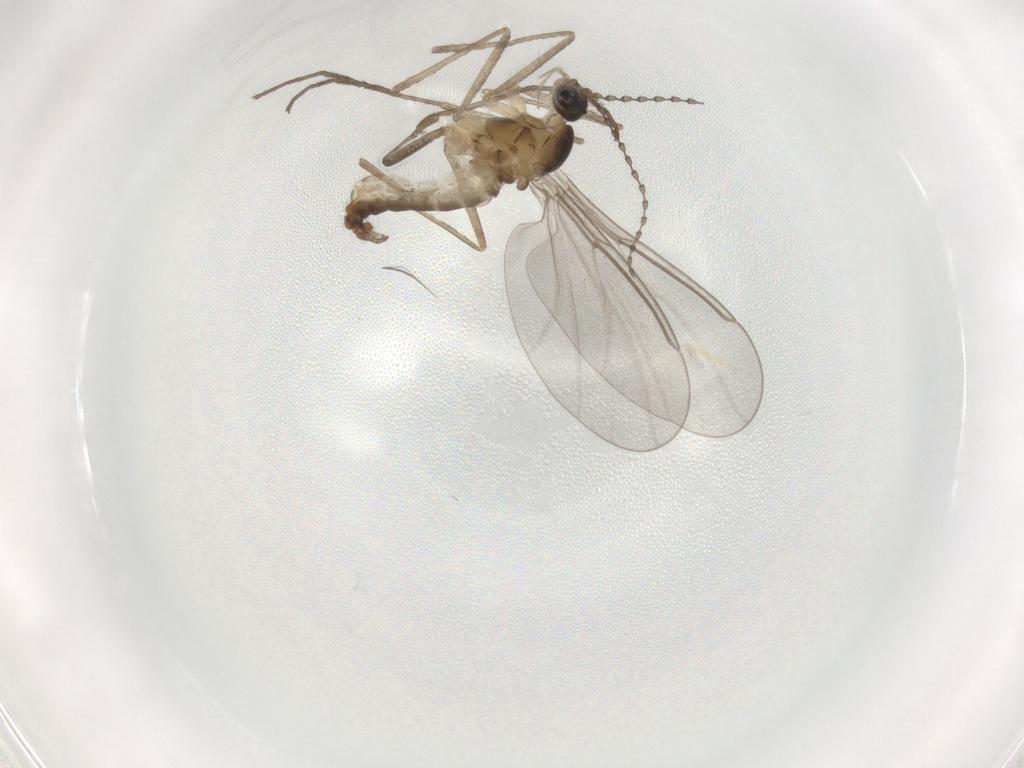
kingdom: Animalia
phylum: Arthropoda
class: Insecta
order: Diptera
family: Cecidomyiidae
